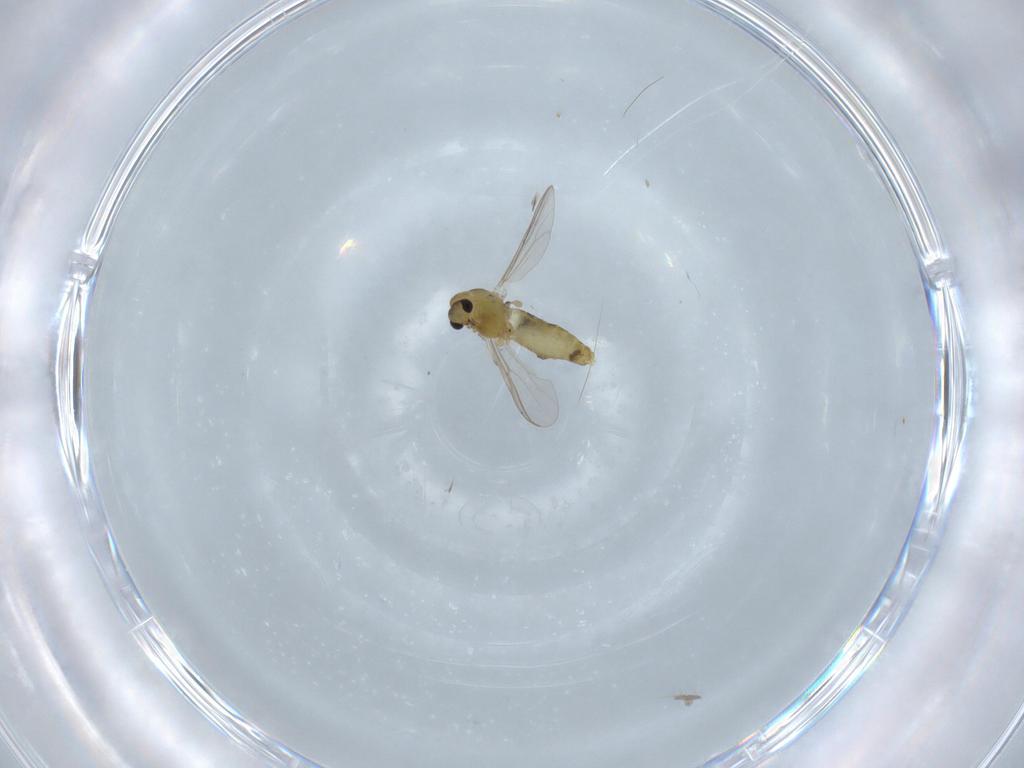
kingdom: Animalia
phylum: Arthropoda
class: Insecta
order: Diptera
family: Chironomidae
